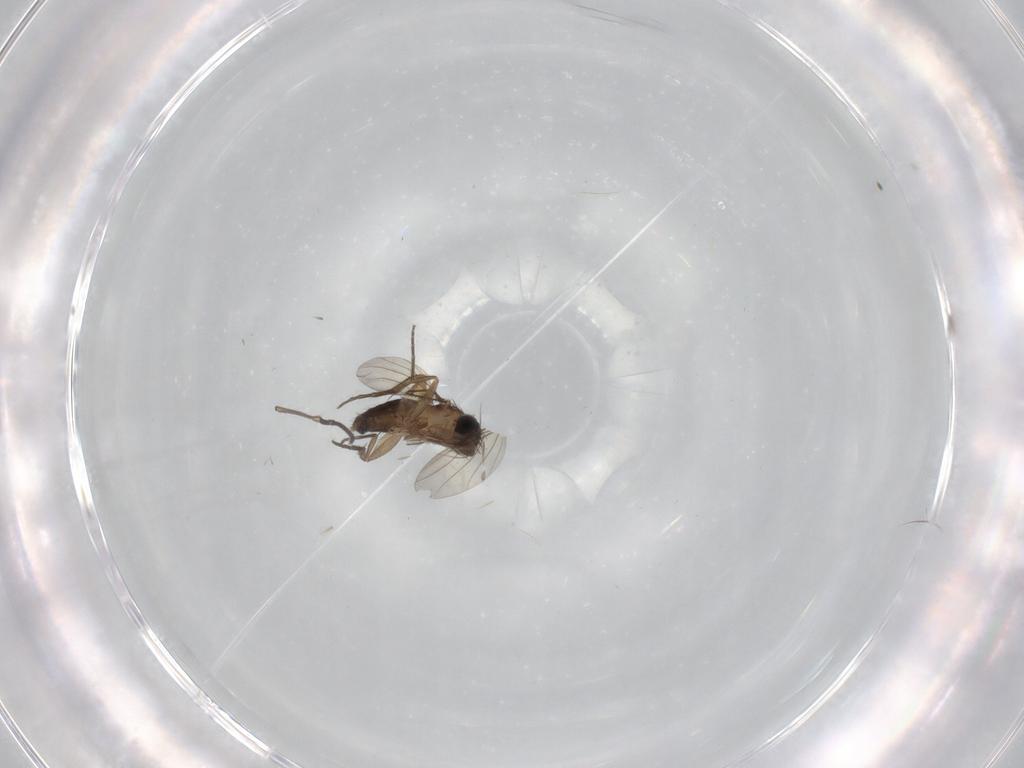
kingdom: Animalia
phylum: Arthropoda
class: Insecta
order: Diptera
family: Phoridae
